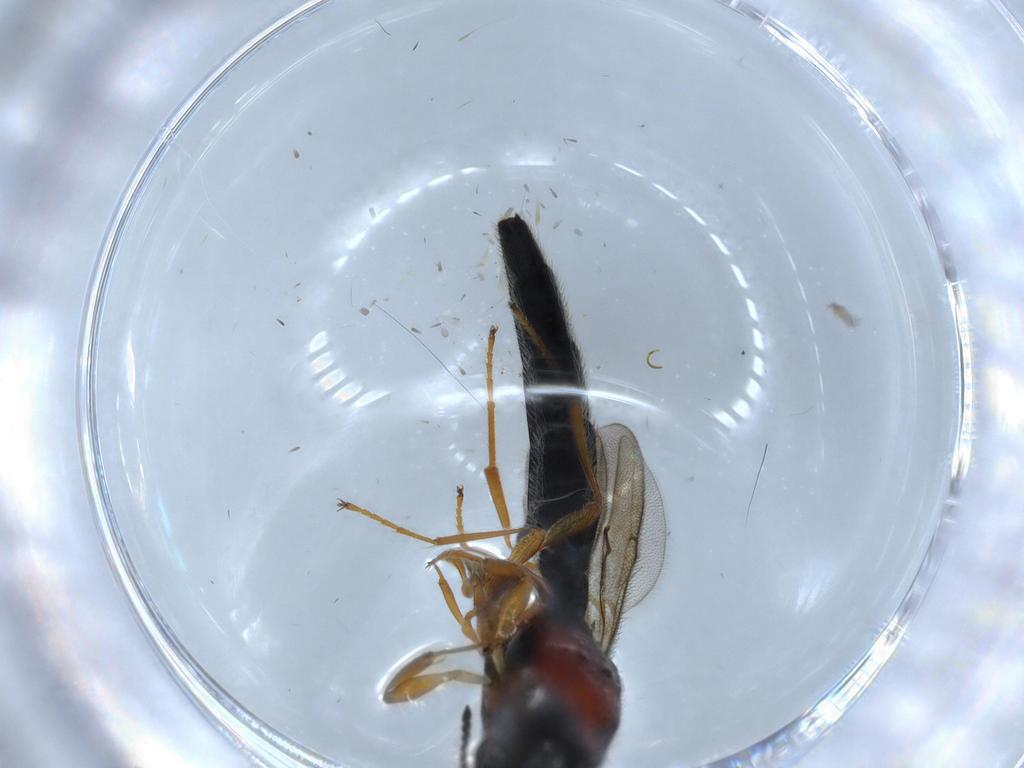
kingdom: Animalia
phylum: Arthropoda
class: Insecta
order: Hymenoptera
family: Scelionidae
